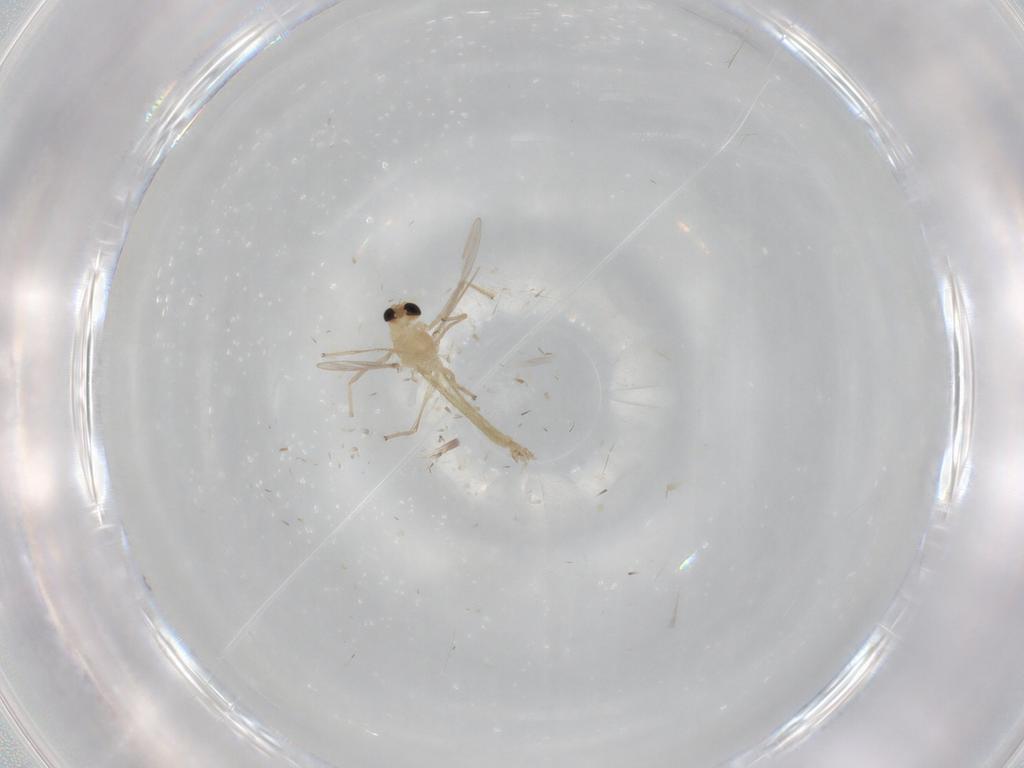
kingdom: Animalia
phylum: Arthropoda
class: Insecta
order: Diptera
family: Chironomidae
